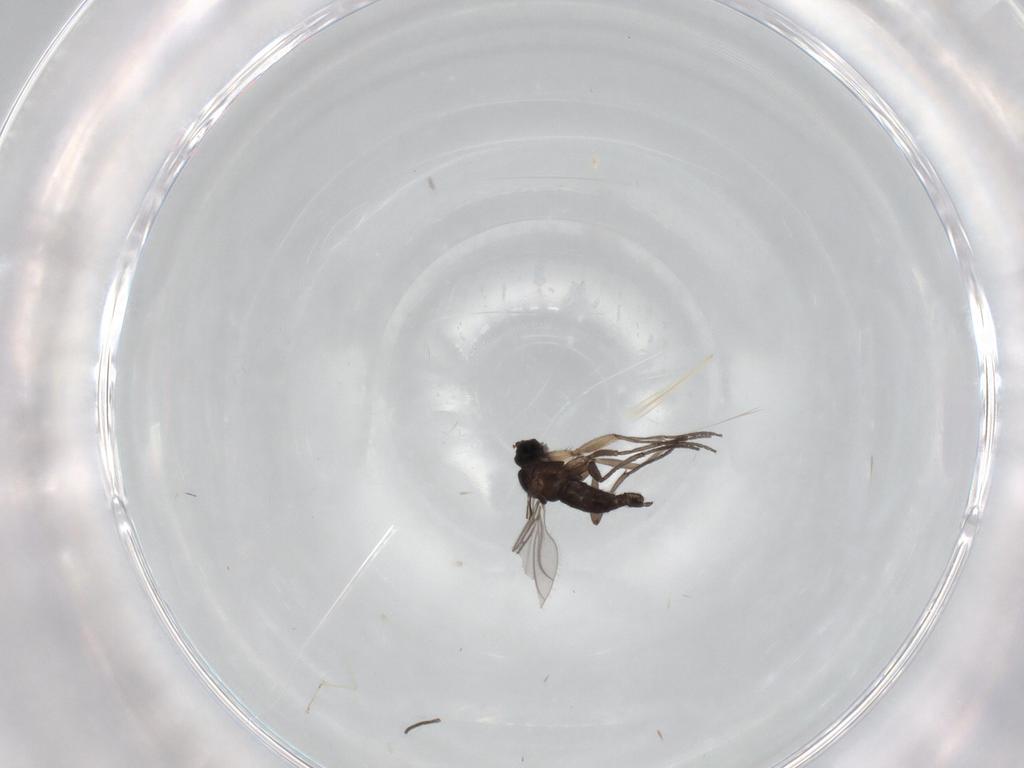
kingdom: Animalia
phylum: Arthropoda
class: Insecta
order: Diptera
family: Sciaridae
